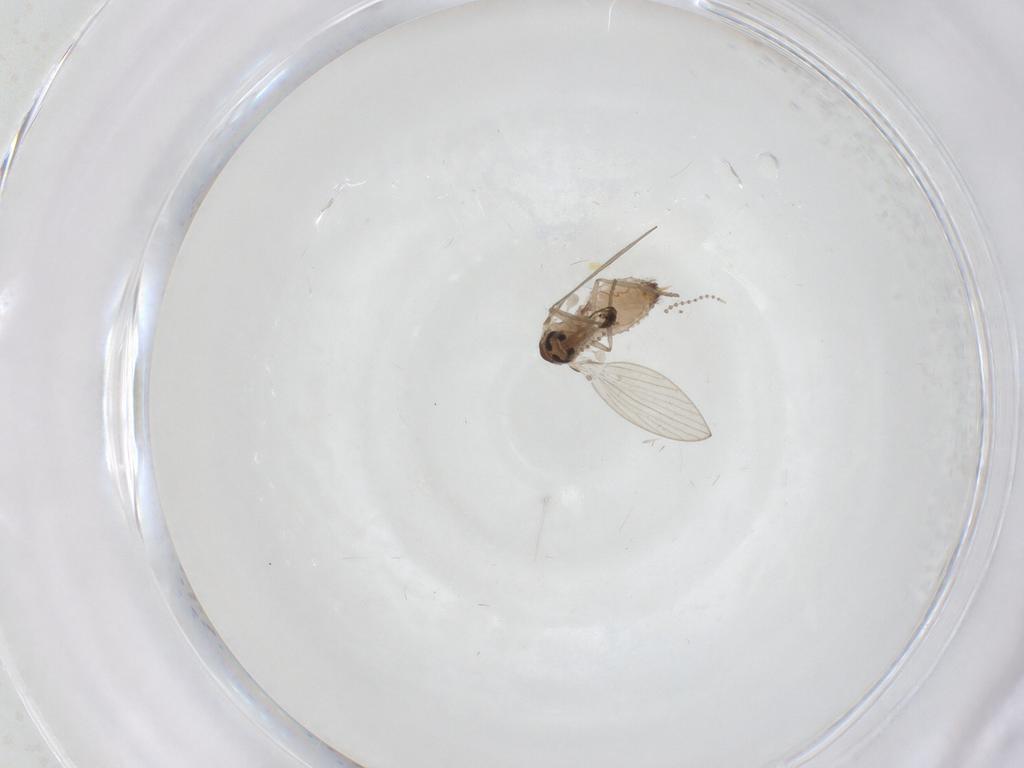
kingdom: Animalia
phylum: Arthropoda
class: Insecta
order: Diptera
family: Psychodidae
